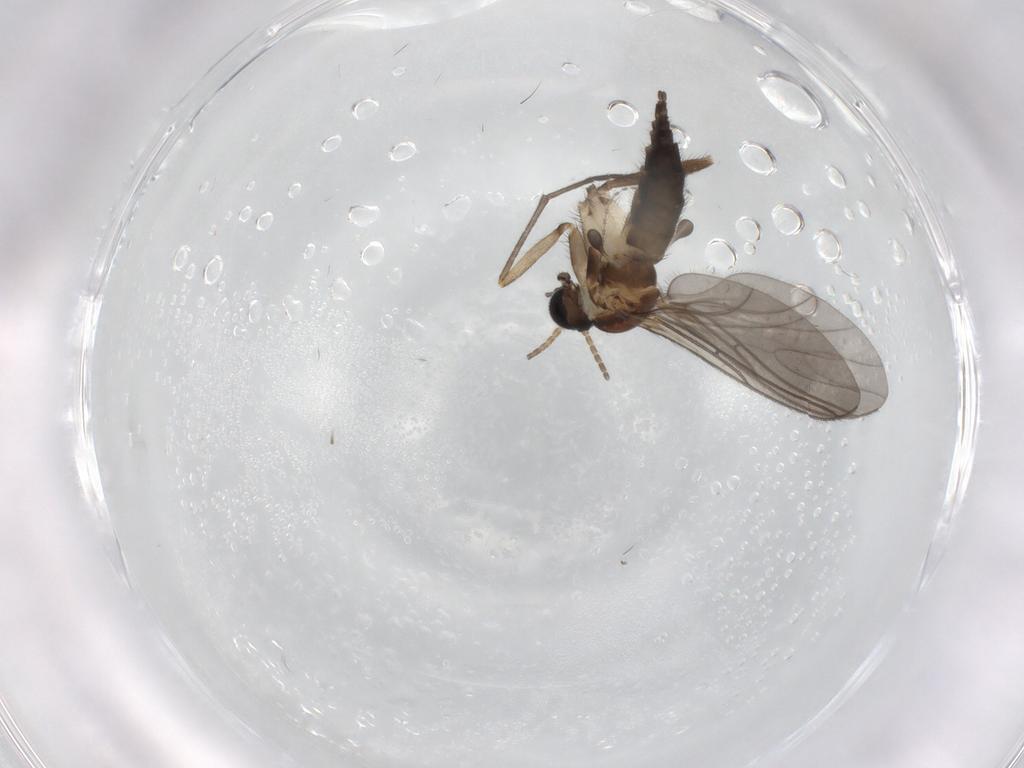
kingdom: Animalia
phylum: Arthropoda
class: Insecta
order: Diptera
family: Sciaridae
